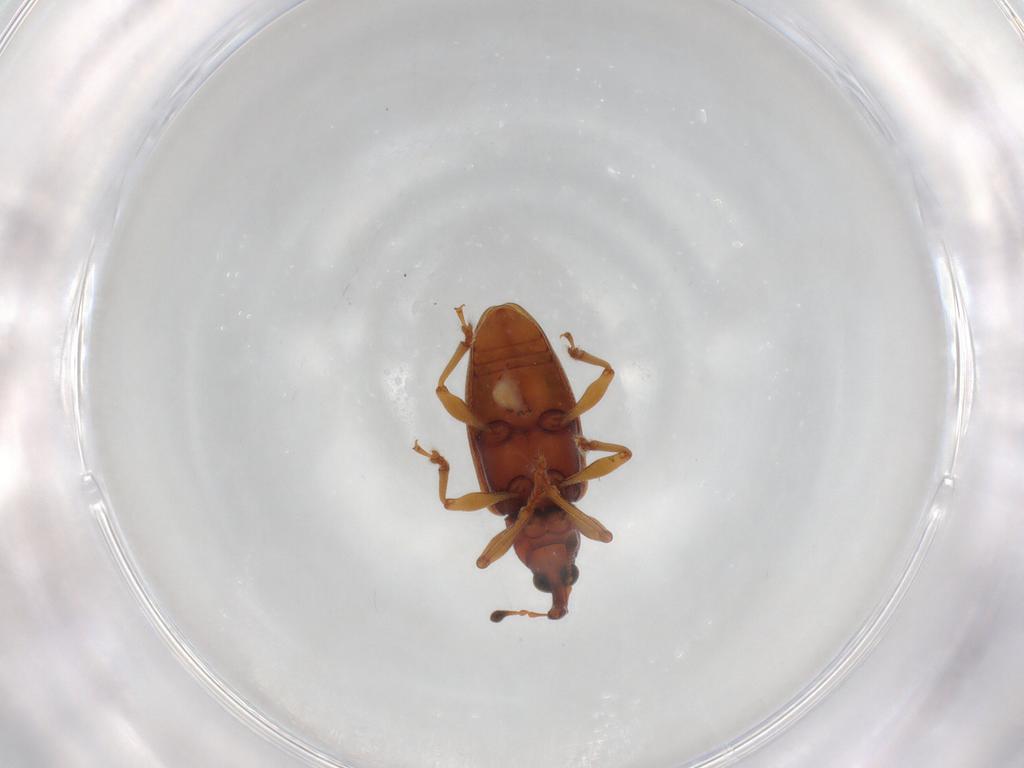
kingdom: Animalia
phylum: Arthropoda
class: Insecta
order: Coleoptera
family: Curculionidae
